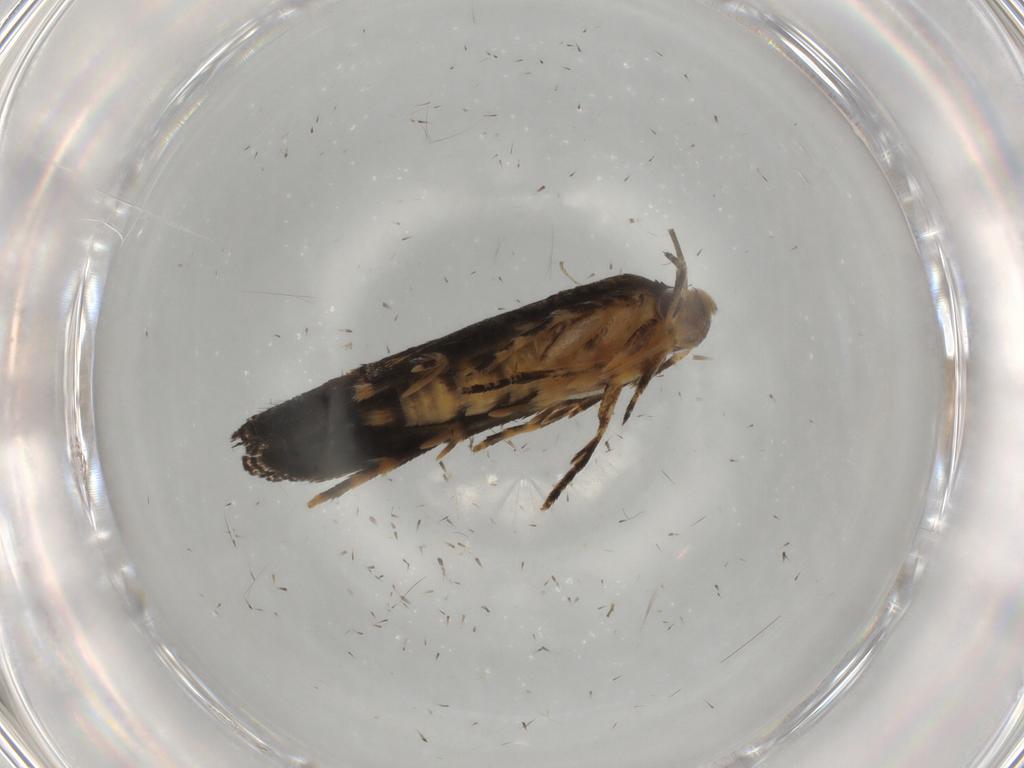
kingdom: Animalia
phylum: Arthropoda
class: Insecta
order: Lepidoptera
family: Momphidae
